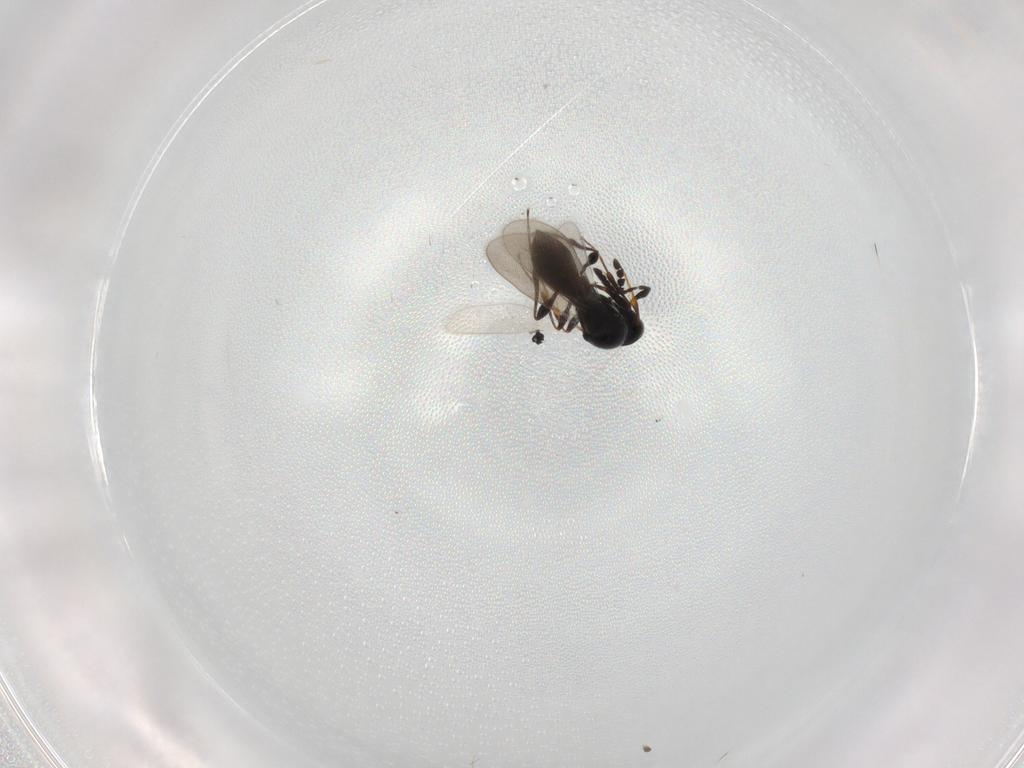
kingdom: Animalia
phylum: Arthropoda
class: Insecta
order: Hymenoptera
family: Platygastridae
